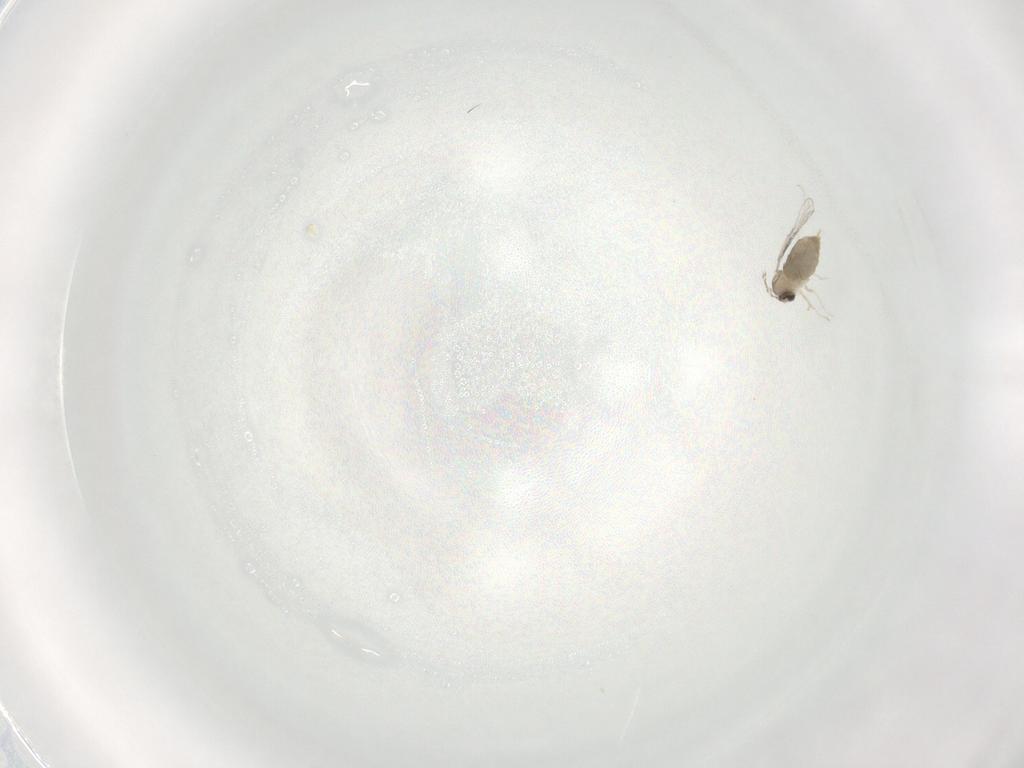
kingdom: Animalia
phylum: Arthropoda
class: Insecta
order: Diptera
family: Cecidomyiidae
